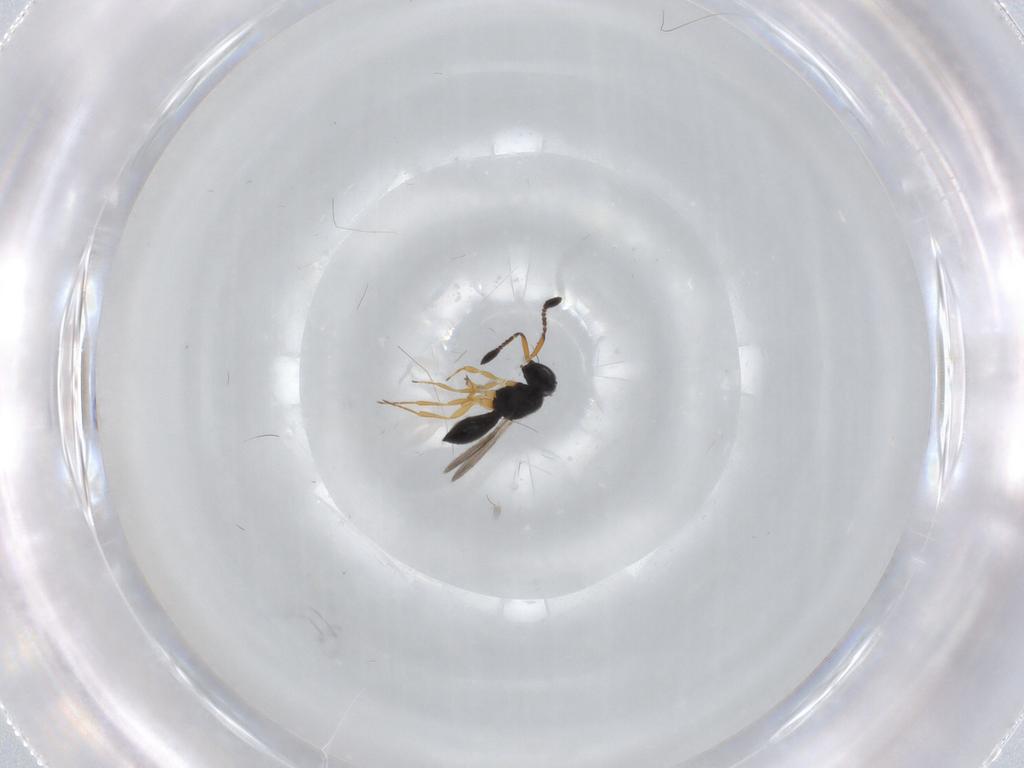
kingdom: Animalia
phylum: Arthropoda
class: Insecta
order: Hymenoptera
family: Scelionidae
